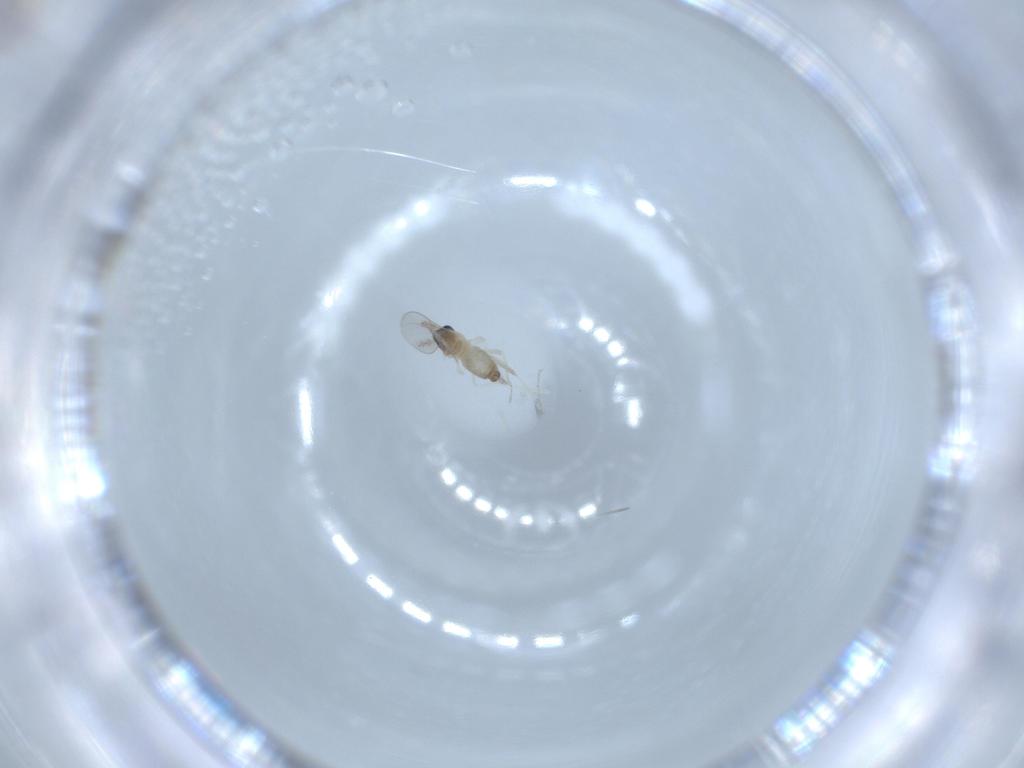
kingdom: Animalia
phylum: Arthropoda
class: Insecta
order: Diptera
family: Cecidomyiidae
